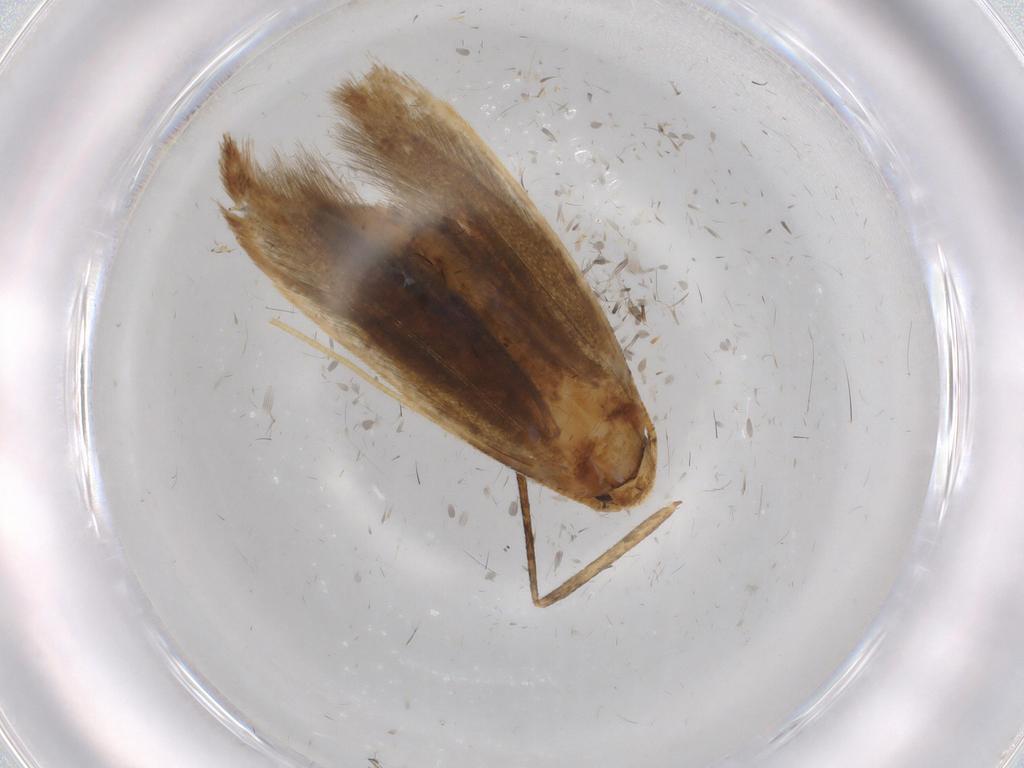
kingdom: Animalia
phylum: Arthropoda
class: Insecta
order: Lepidoptera
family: Tineidae
